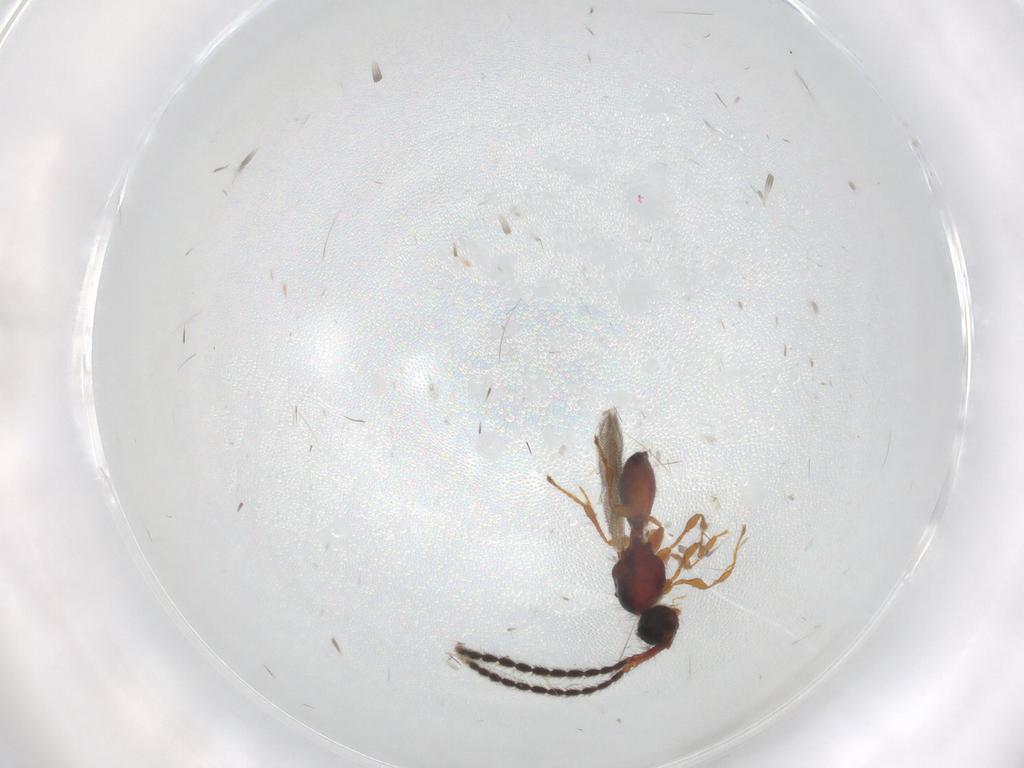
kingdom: Animalia
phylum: Arthropoda
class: Insecta
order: Hymenoptera
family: Diapriidae
